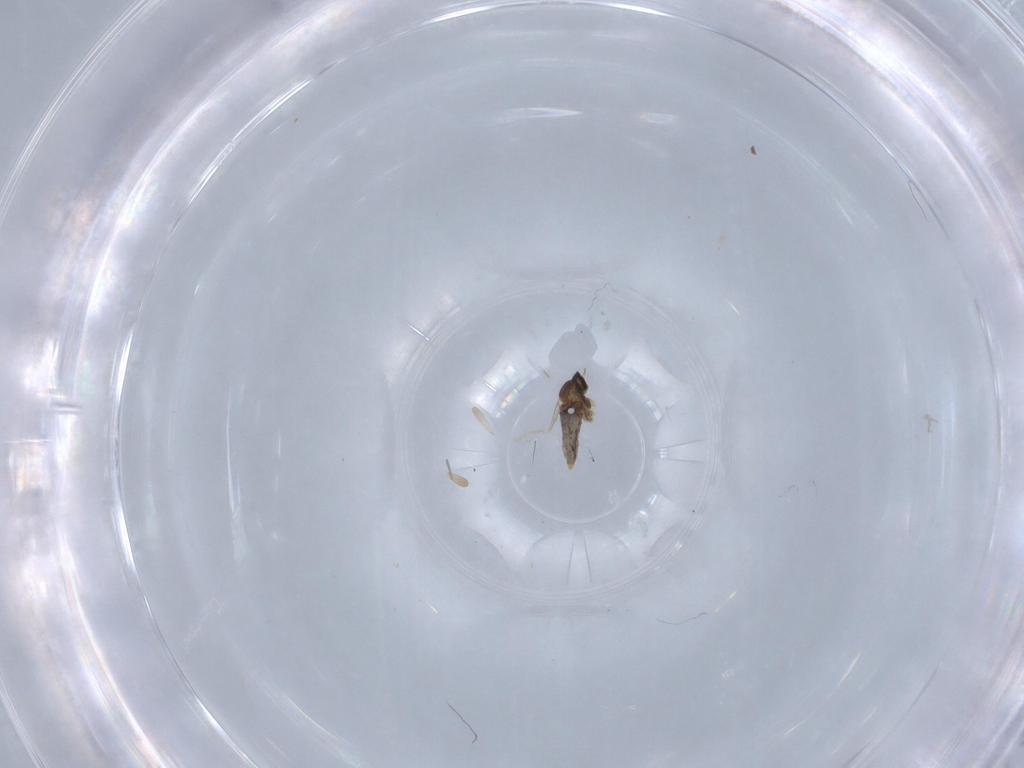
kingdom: Animalia
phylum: Arthropoda
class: Insecta
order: Diptera
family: Cecidomyiidae
